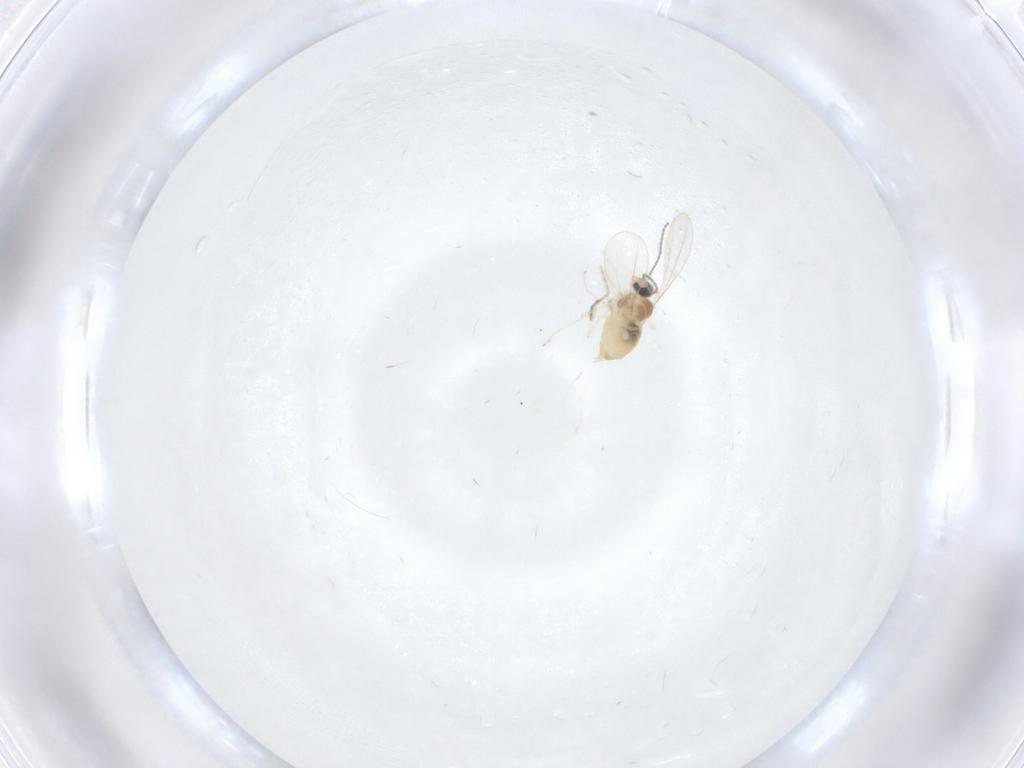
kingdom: Animalia
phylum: Arthropoda
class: Insecta
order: Diptera
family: Cecidomyiidae
